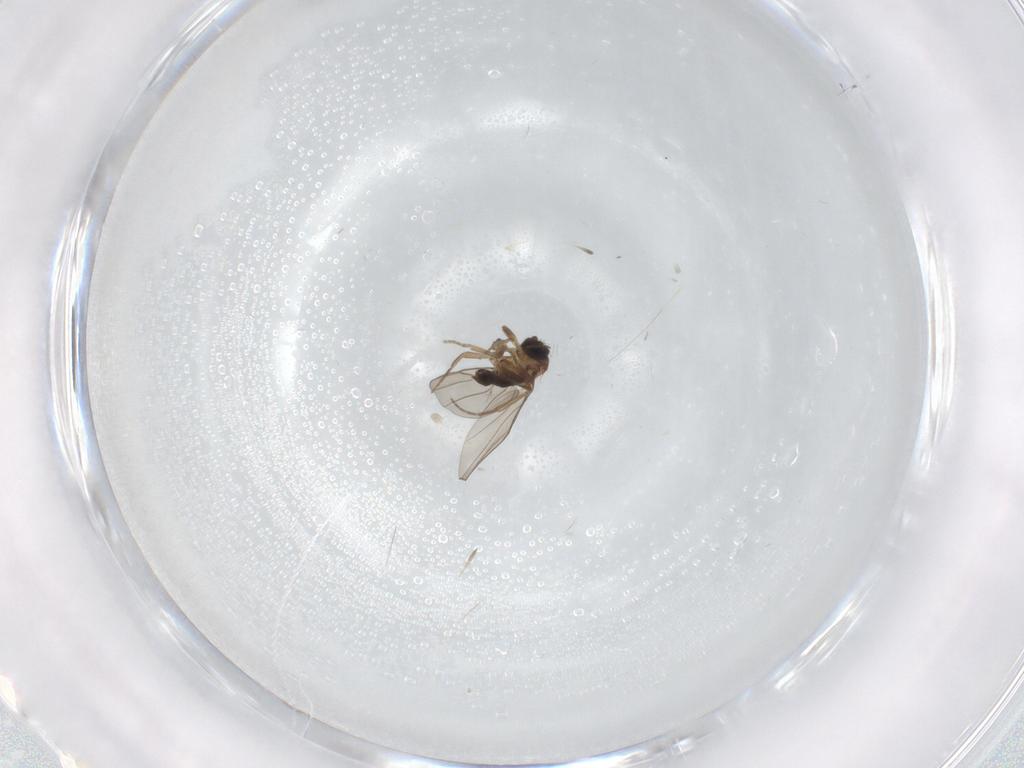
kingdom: Animalia
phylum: Arthropoda
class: Insecta
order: Diptera
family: Phoridae
